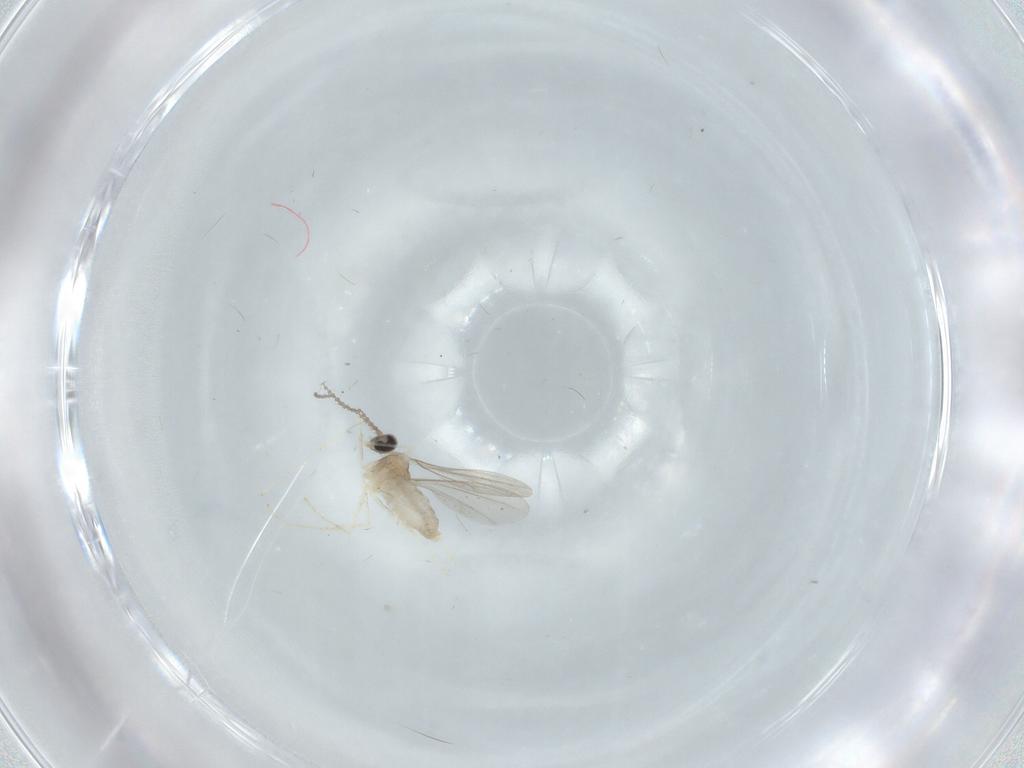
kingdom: Animalia
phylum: Arthropoda
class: Insecta
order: Diptera
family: Cecidomyiidae
